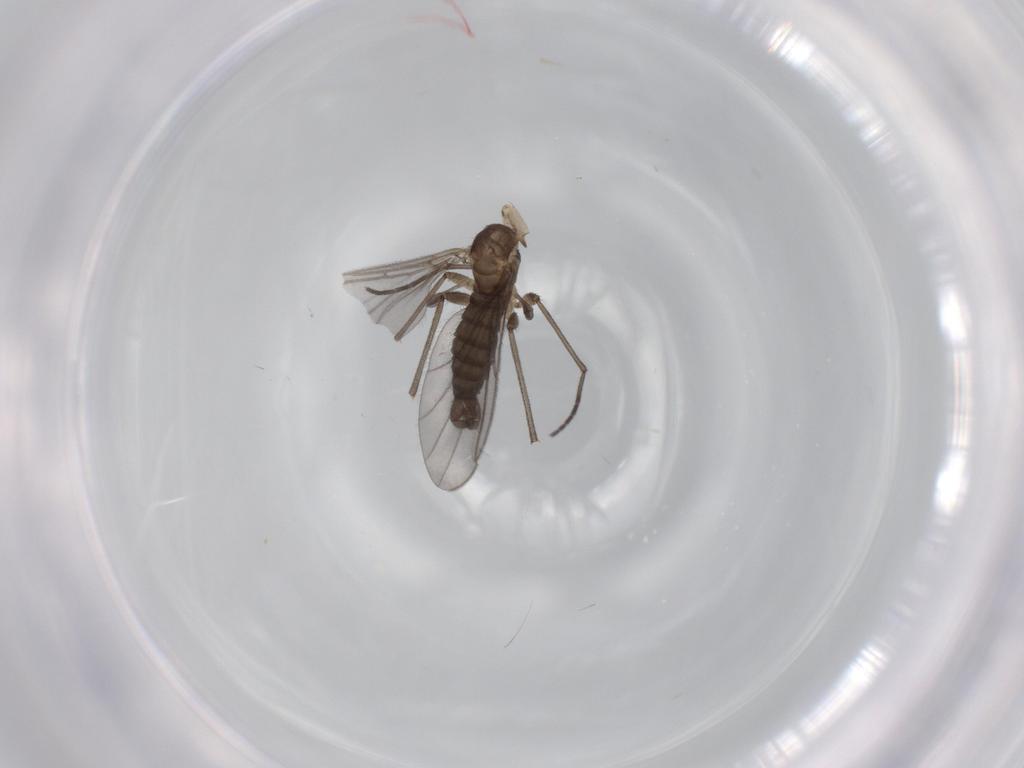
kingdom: Animalia
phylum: Arthropoda
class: Insecta
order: Diptera
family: Sciaridae
